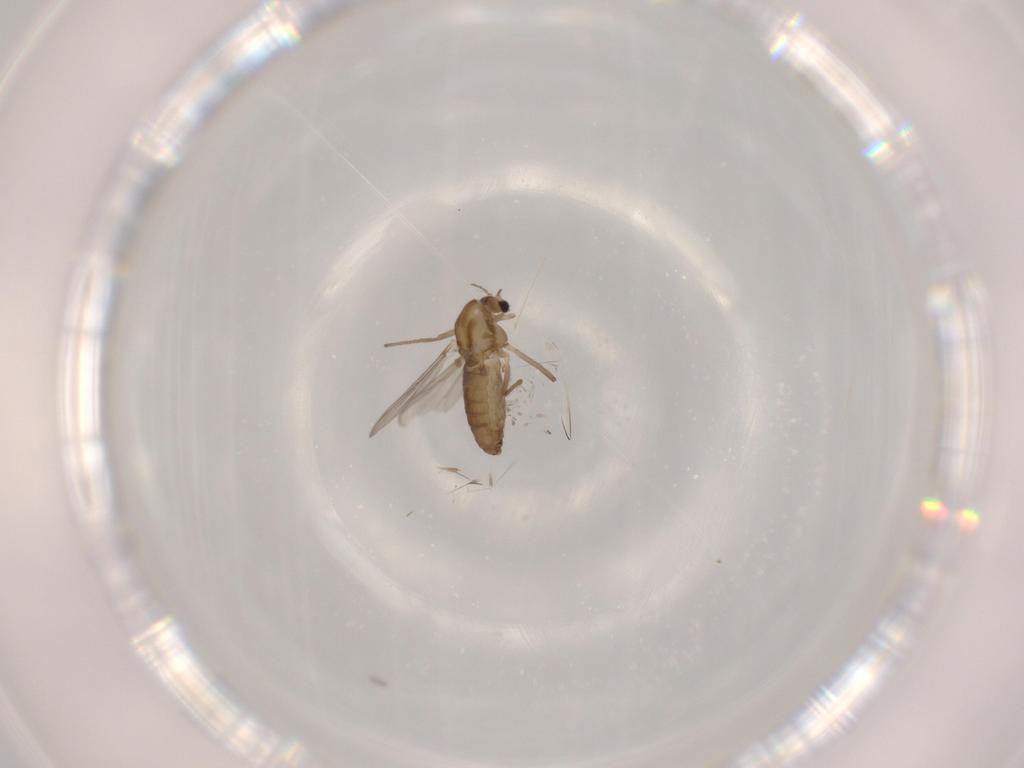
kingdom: Animalia
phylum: Arthropoda
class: Insecta
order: Diptera
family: Chironomidae
